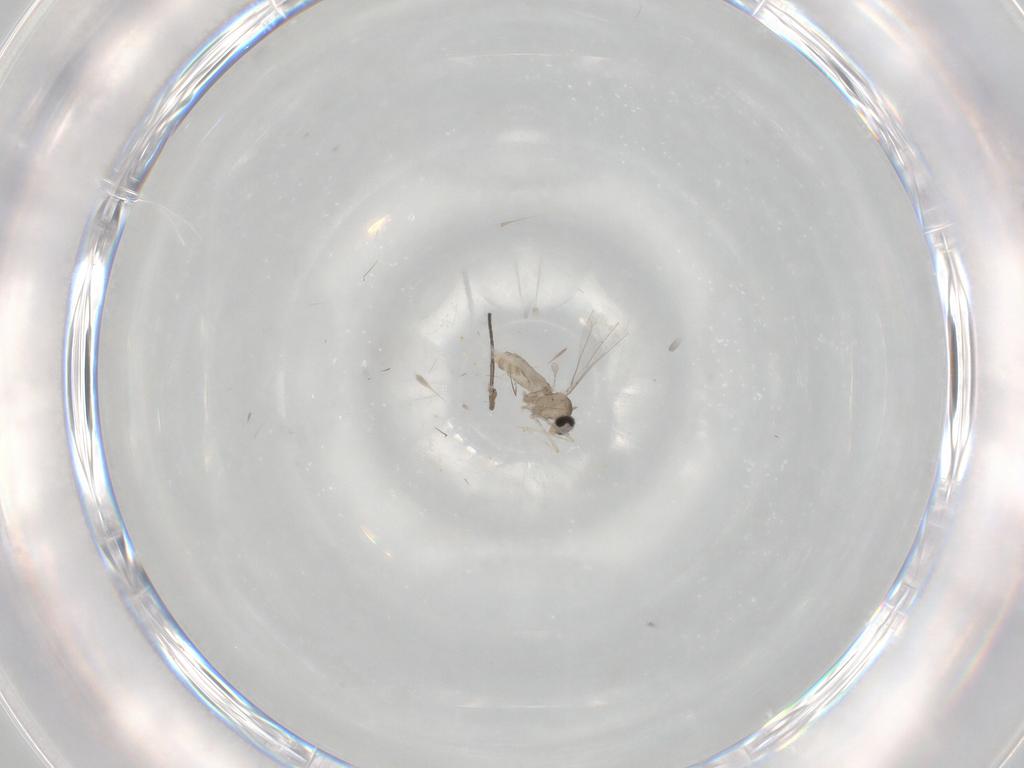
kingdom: Animalia
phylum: Arthropoda
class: Insecta
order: Diptera
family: Cecidomyiidae
